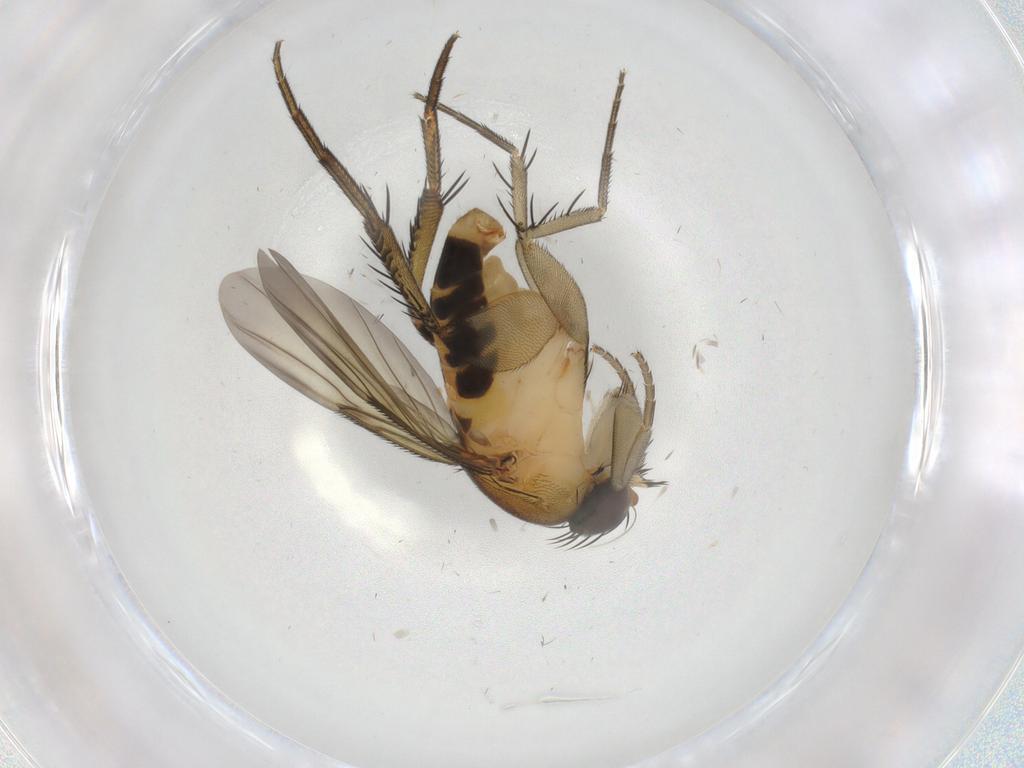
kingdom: Animalia
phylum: Arthropoda
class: Insecta
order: Diptera
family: Phoridae
